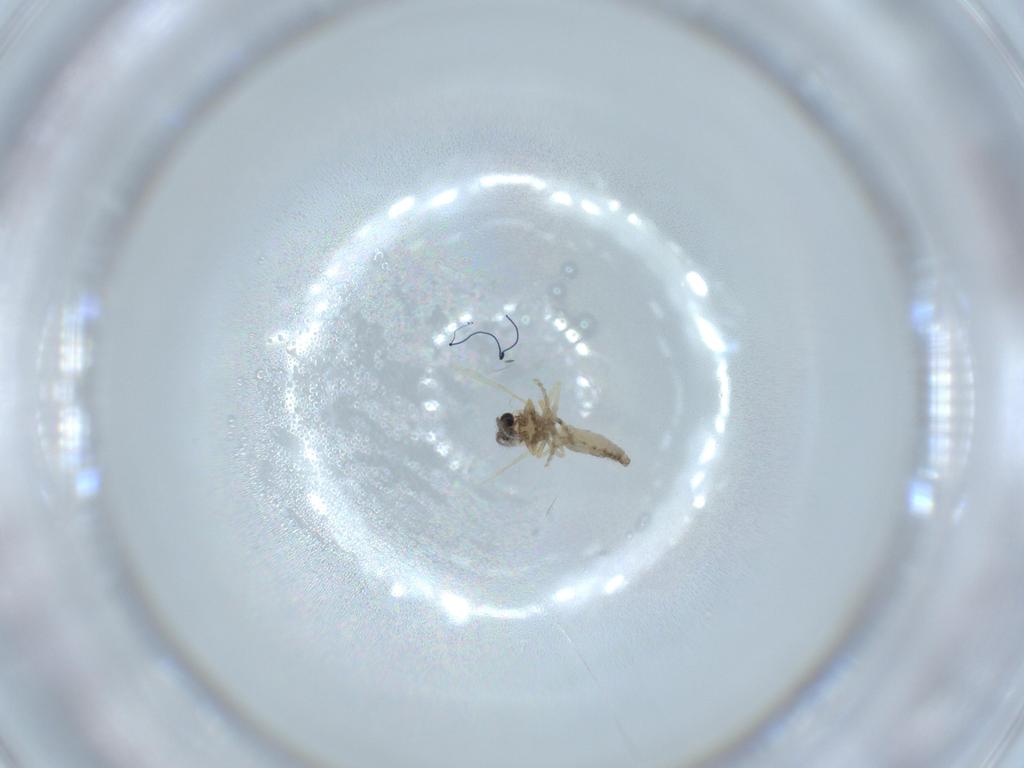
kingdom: Animalia
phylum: Arthropoda
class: Insecta
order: Diptera
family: Ceratopogonidae
